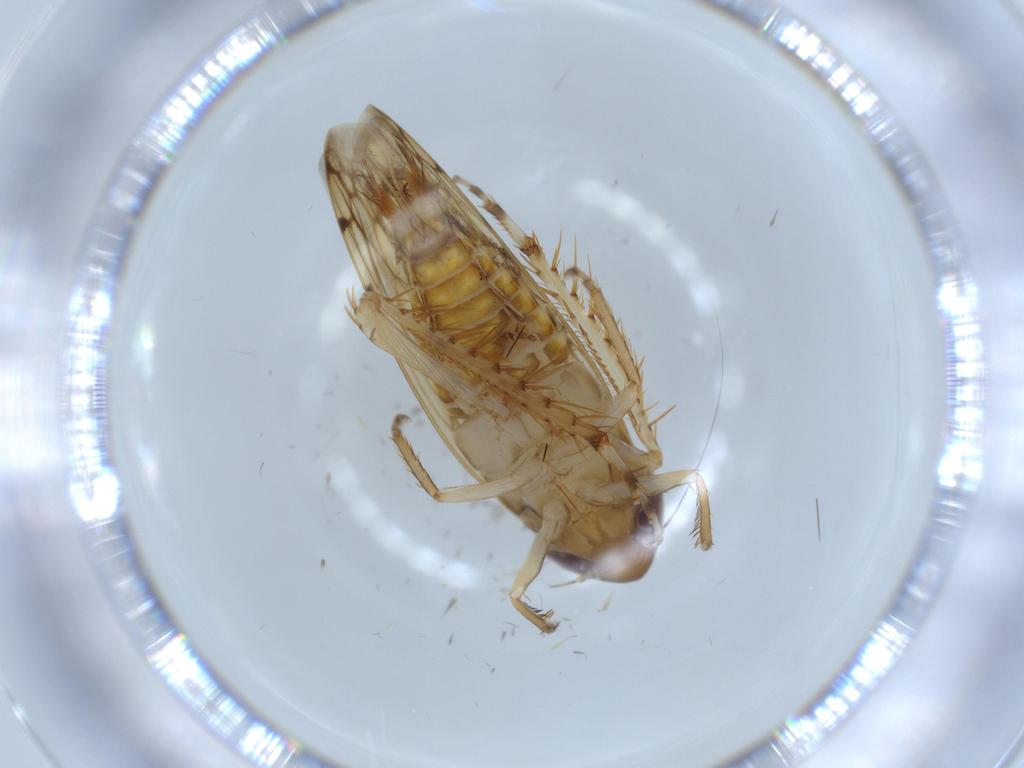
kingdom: Animalia
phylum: Arthropoda
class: Insecta
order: Hemiptera
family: Cicadellidae
